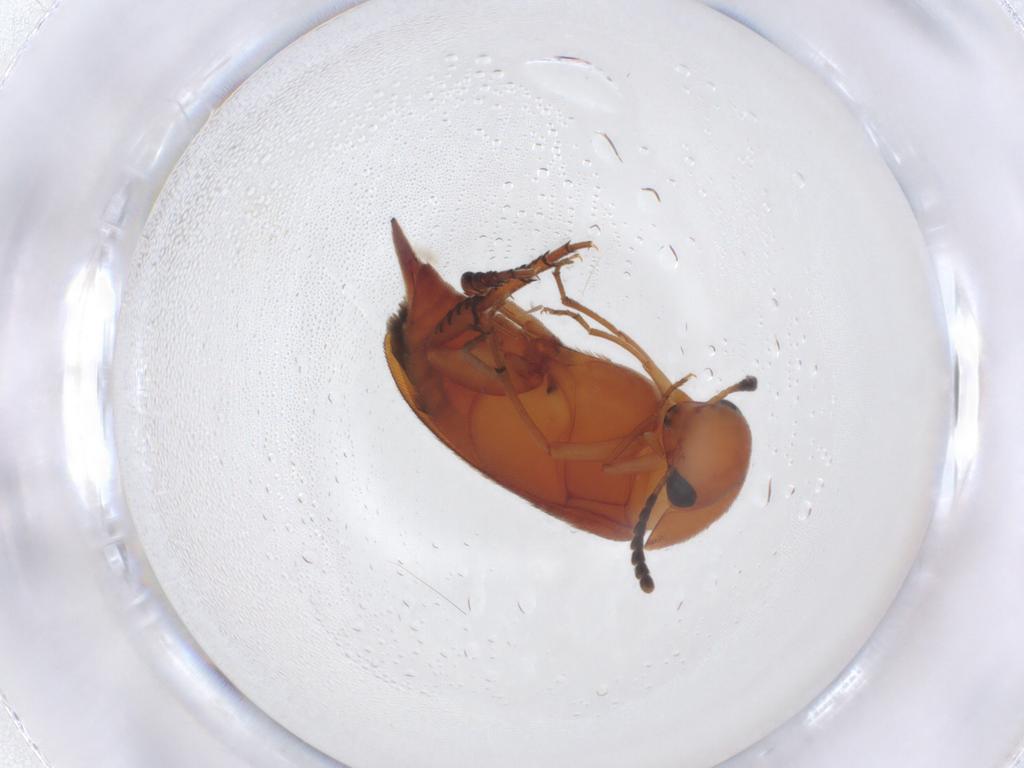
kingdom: Animalia
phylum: Arthropoda
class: Insecta
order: Coleoptera
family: Mordellidae
